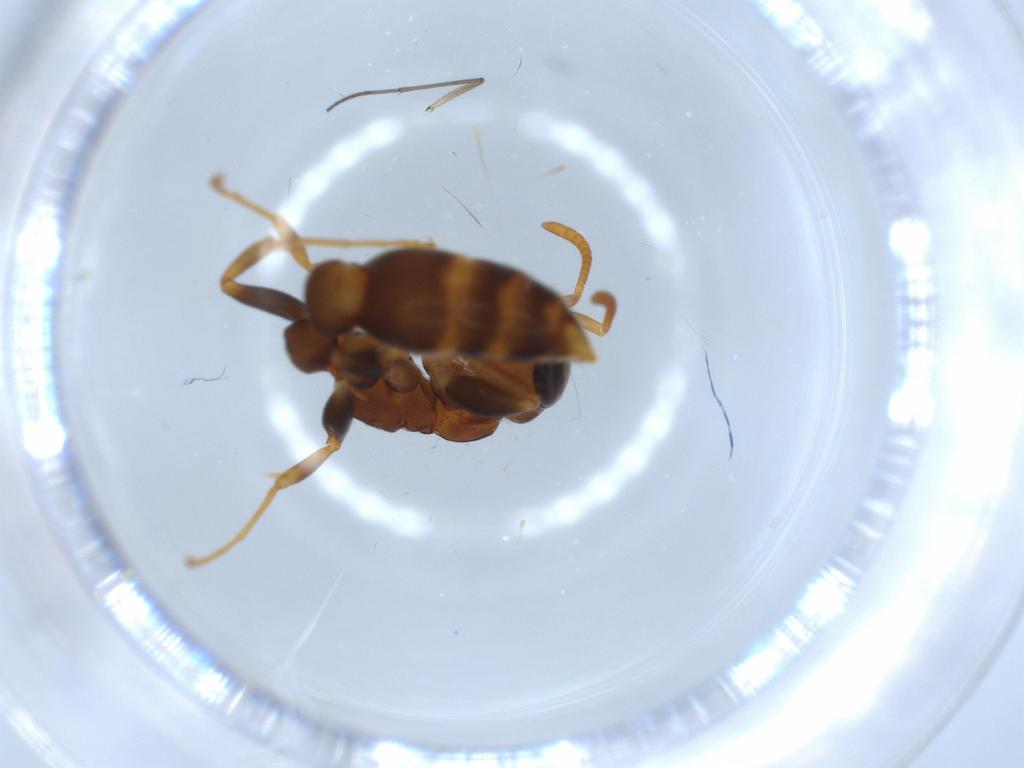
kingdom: Animalia
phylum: Arthropoda
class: Insecta
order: Hymenoptera
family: Formicidae
